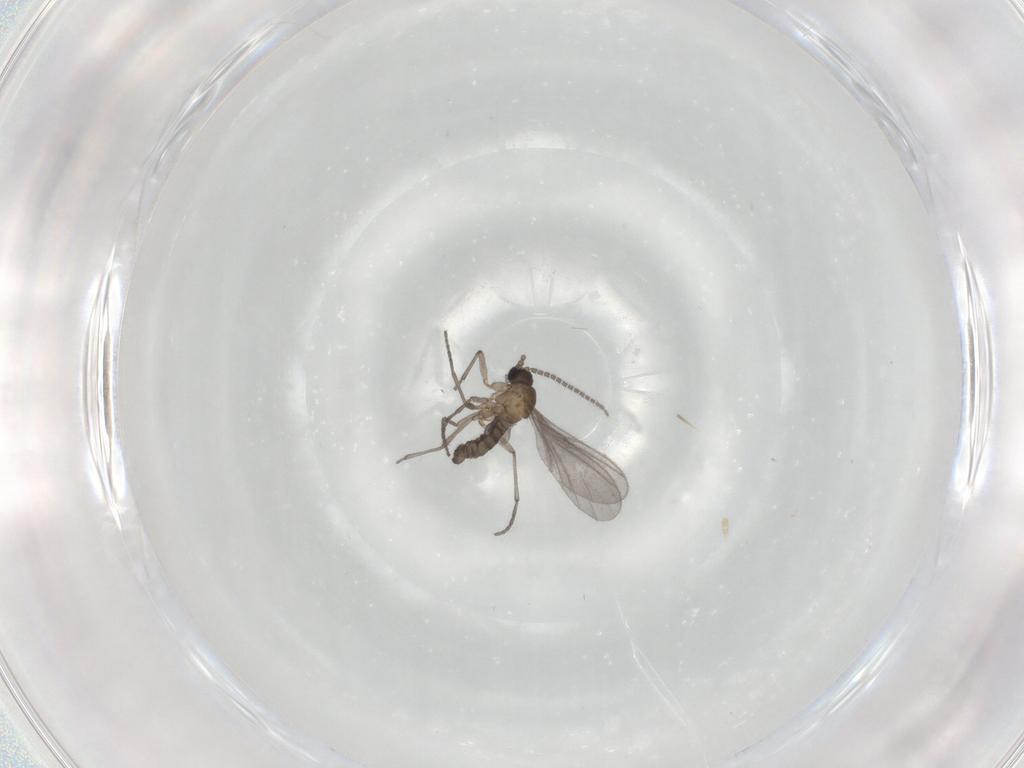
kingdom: Animalia
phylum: Arthropoda
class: Insecta
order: Diptera
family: Sciaridae
